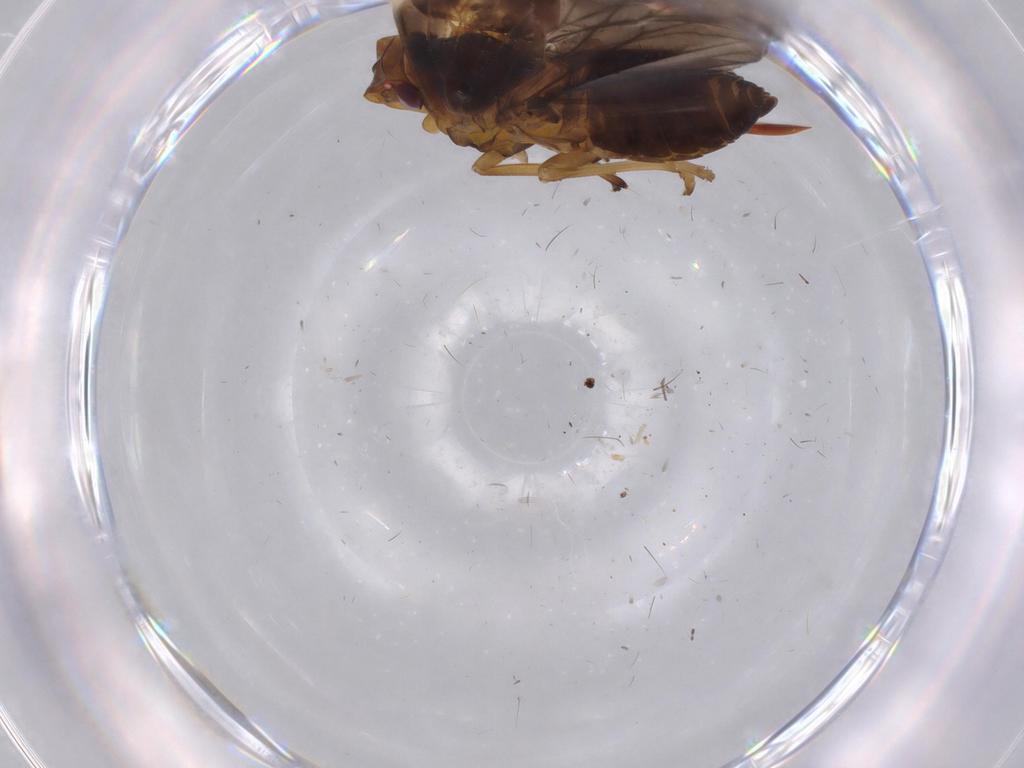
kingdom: Animalia
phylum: Arthropoda
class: Insecta
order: Hemiptera
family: Cixiidae
